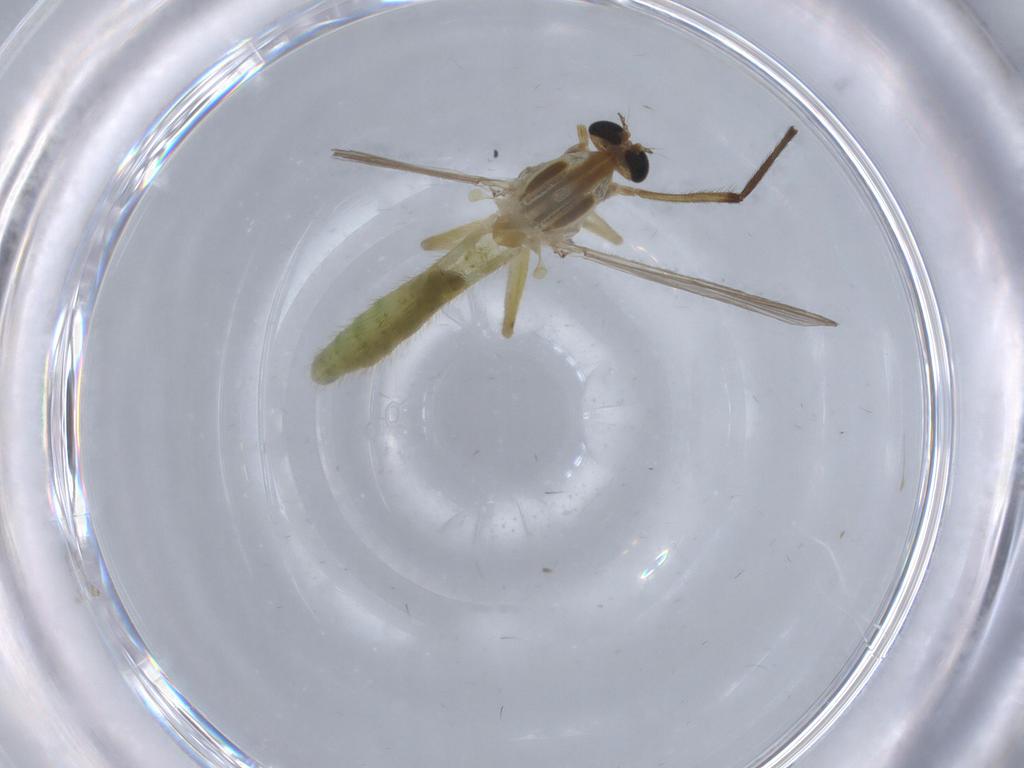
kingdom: Animalia
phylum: Arthropoda
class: Insecta
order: Diptera
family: Chironomidae
